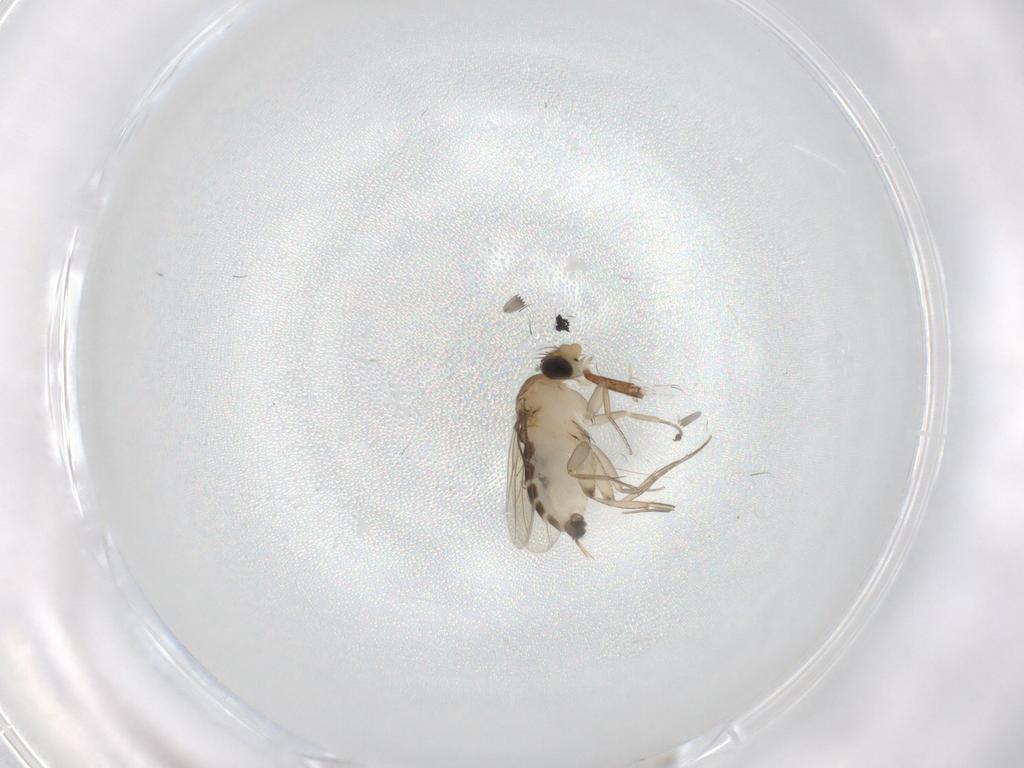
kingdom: Animalia
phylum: Arthropoda
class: Insecta
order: Diptera
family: Phoridae
